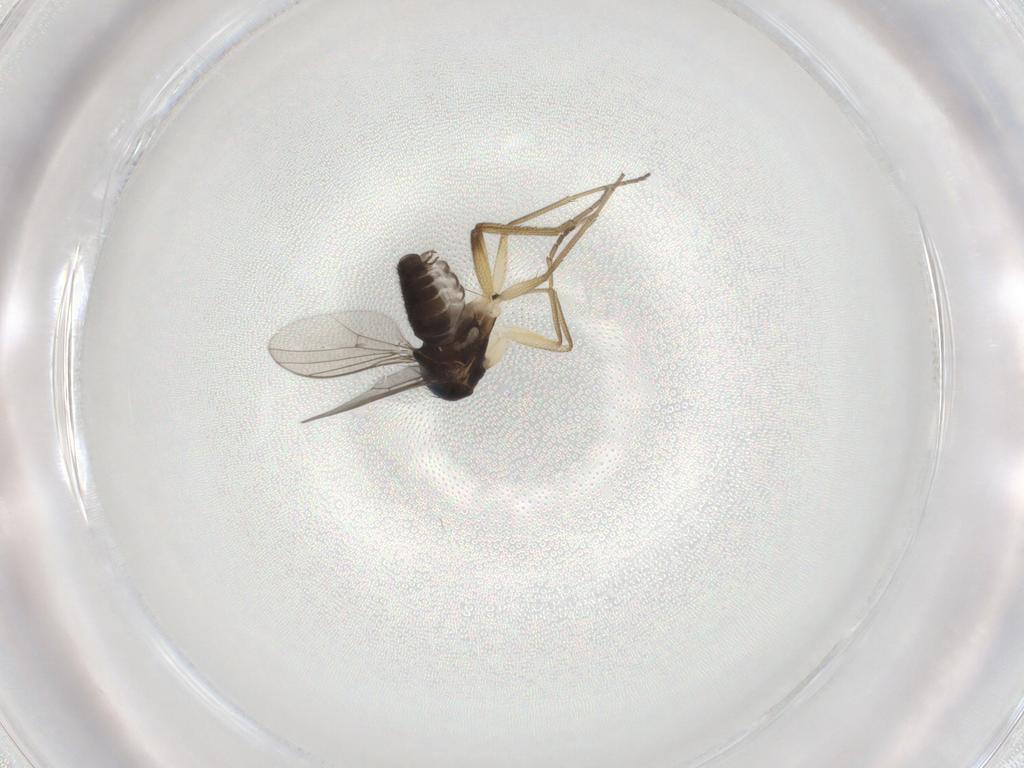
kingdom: Animalia
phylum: Arthropoda
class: Insecta
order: Diptera
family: Dolichopodidae
